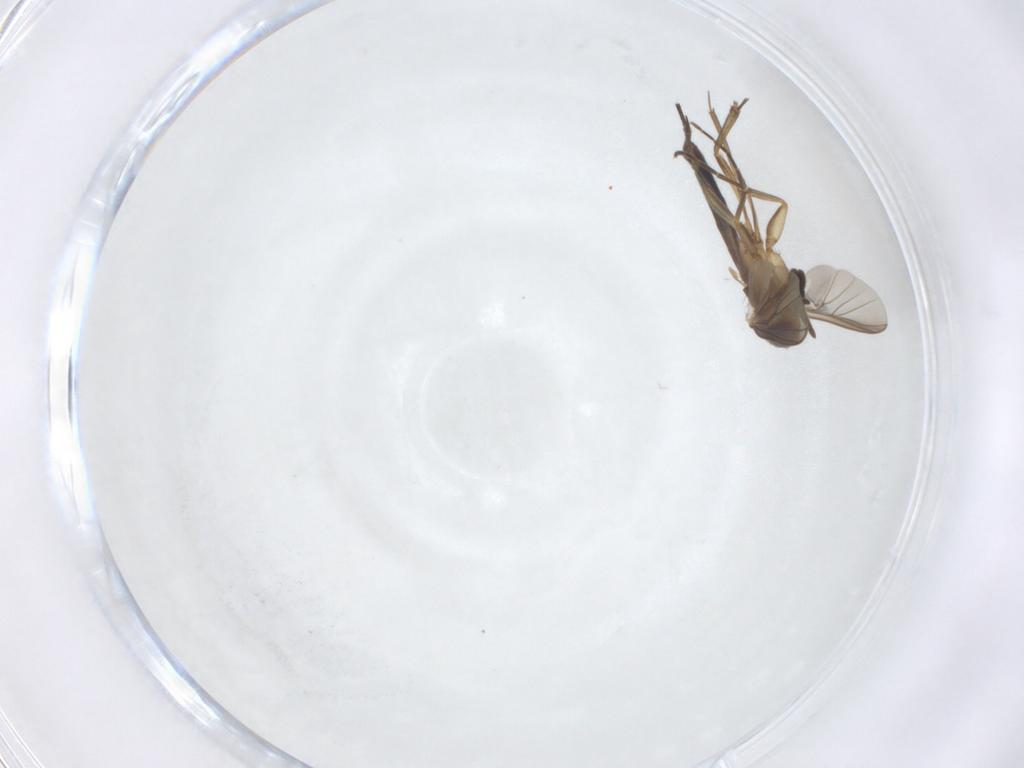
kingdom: Animalia
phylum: Arthropoda
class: Insecta
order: Diptera
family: Mycetophilidae
